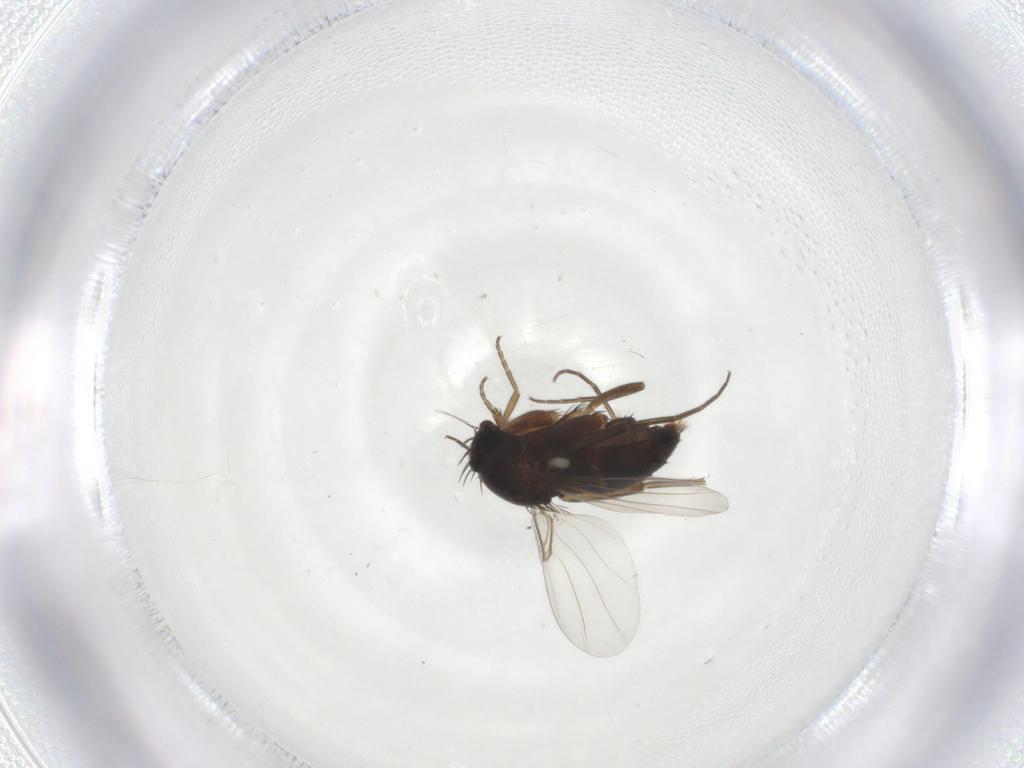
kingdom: Animalia
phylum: Arthropoda
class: Insecta
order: Diptera
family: Phoridae
